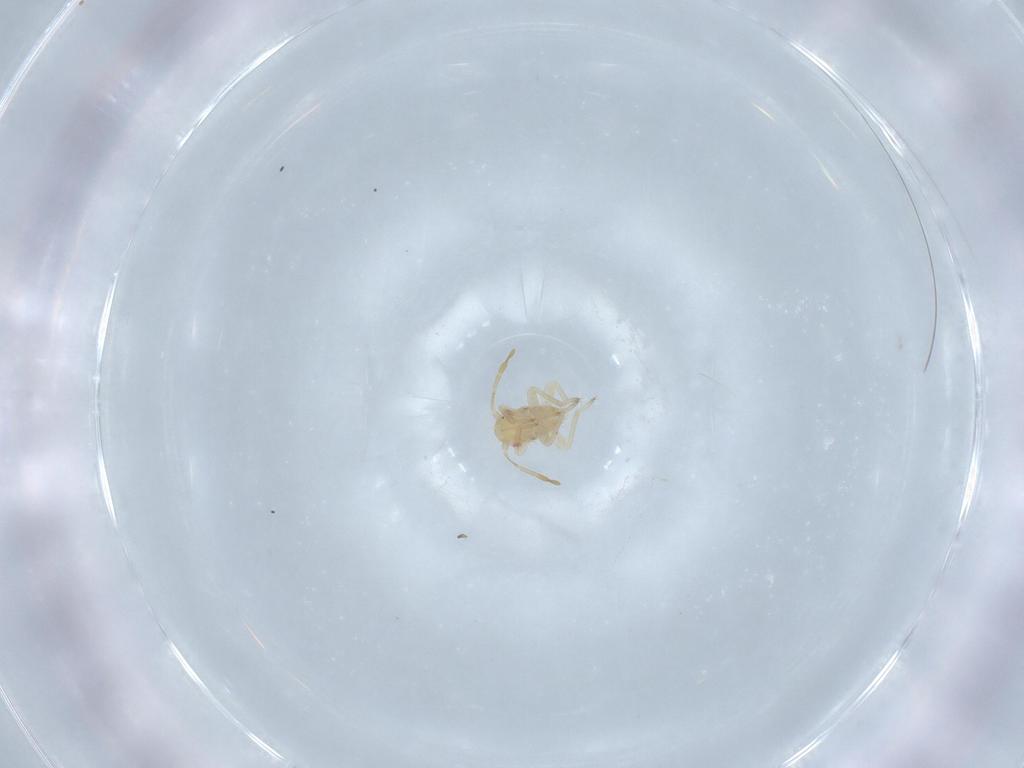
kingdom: Animalia
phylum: Arthropoda
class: Insecta
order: Hemiptera
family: Miridae
